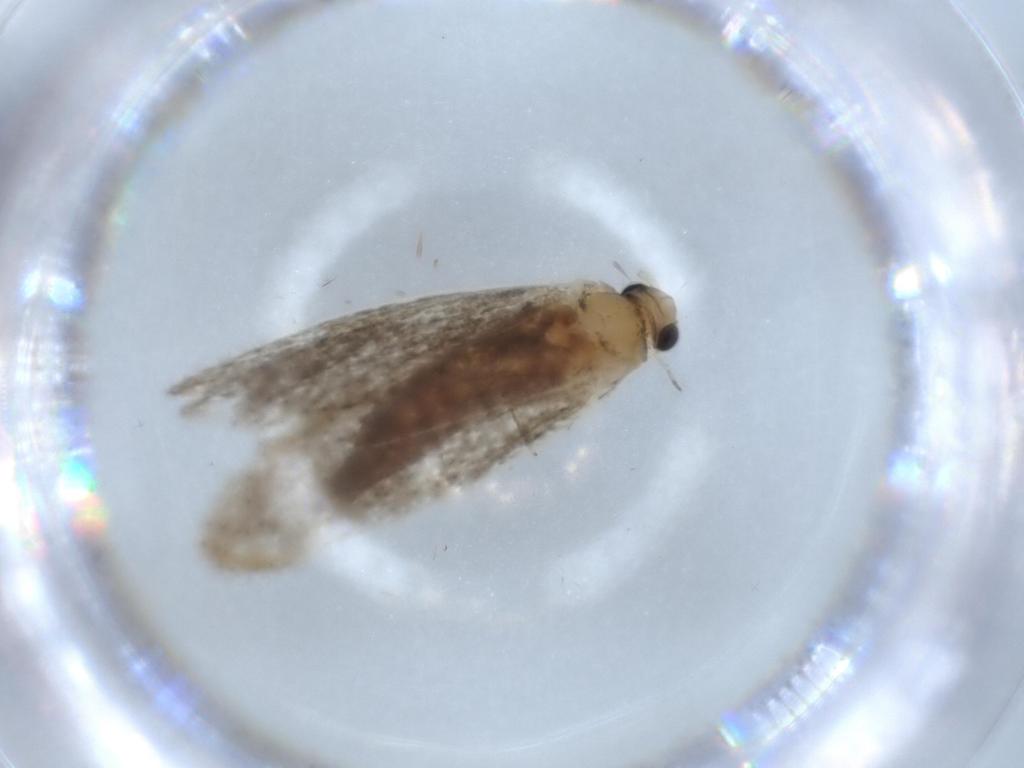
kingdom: Animalia
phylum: Arthropoda
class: Insecta
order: Lepidoptera
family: Tineidae
